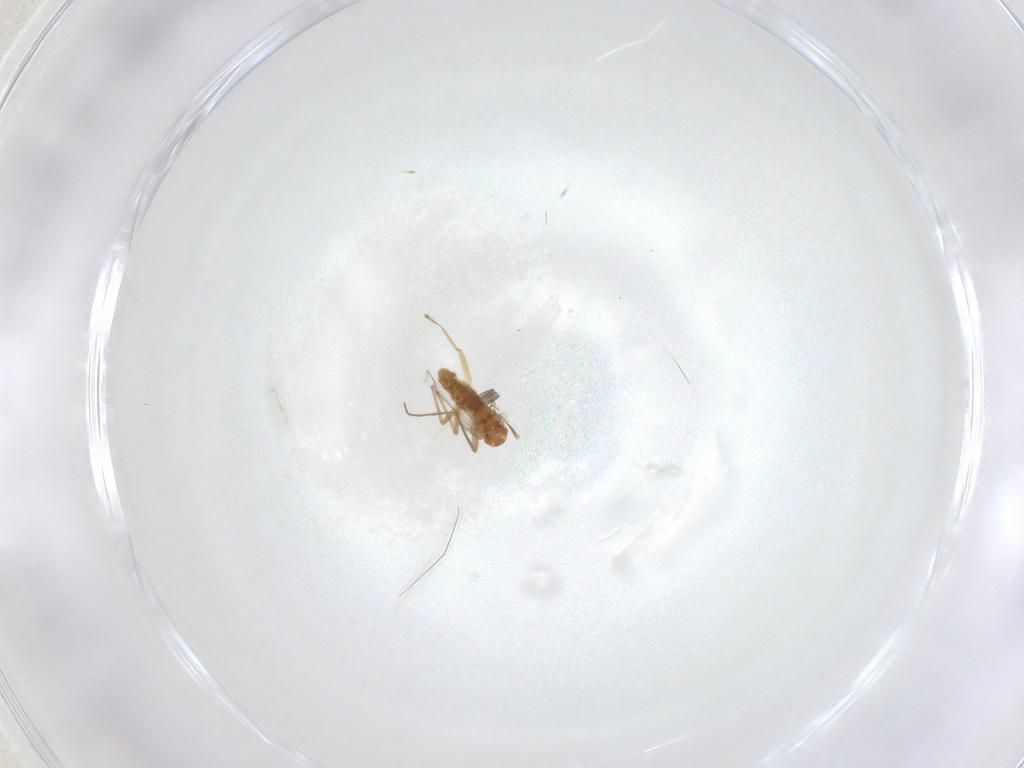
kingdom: Animalia
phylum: Arthropoda
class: Insecta
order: Diptera
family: Chironomidae
